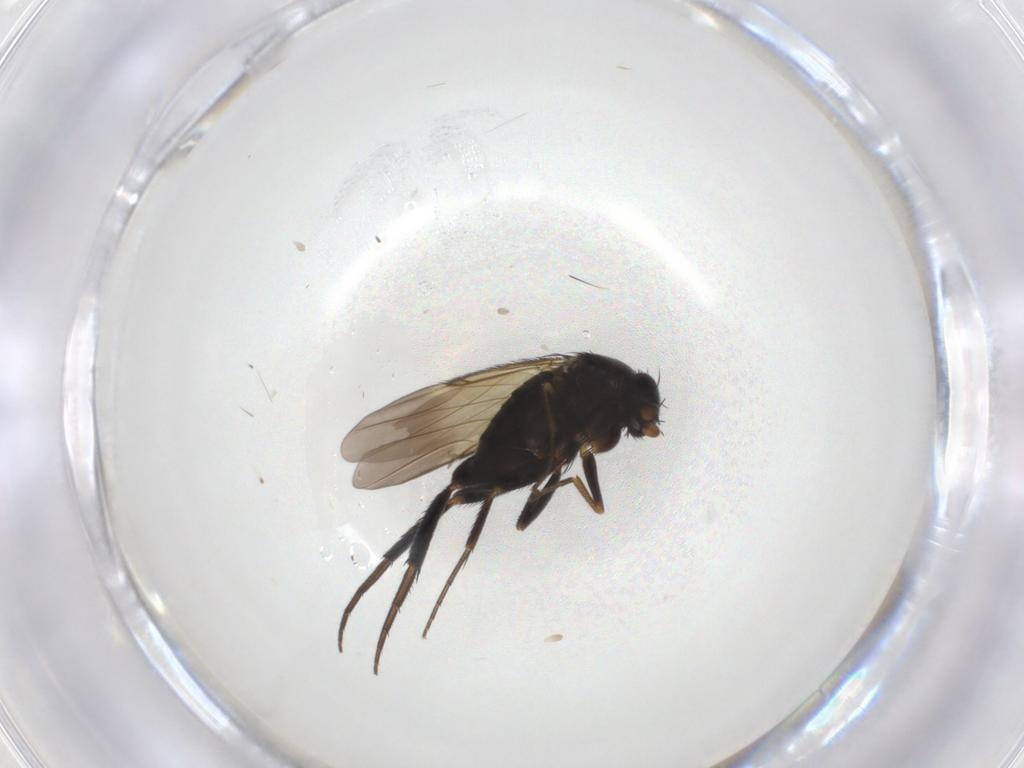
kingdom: Animalia
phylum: Arthropoda
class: Insecta
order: Diptera
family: Phoridae
